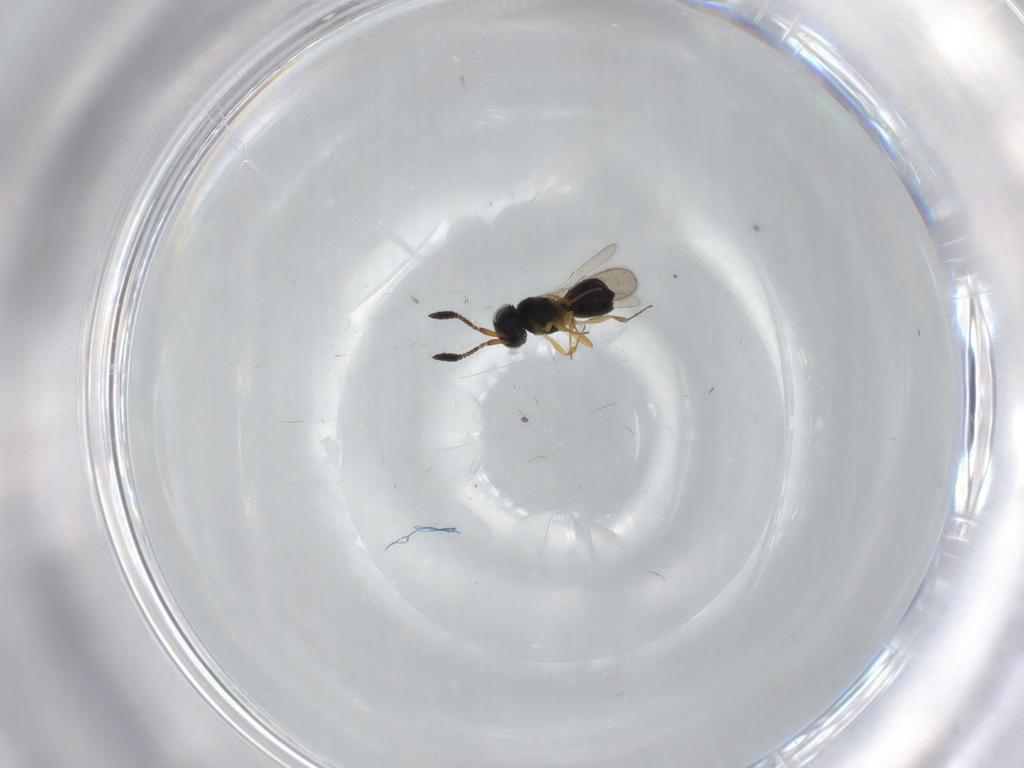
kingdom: Animalia
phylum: Arthropoda
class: Insecta
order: Hymenoptera
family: Scelionidae
